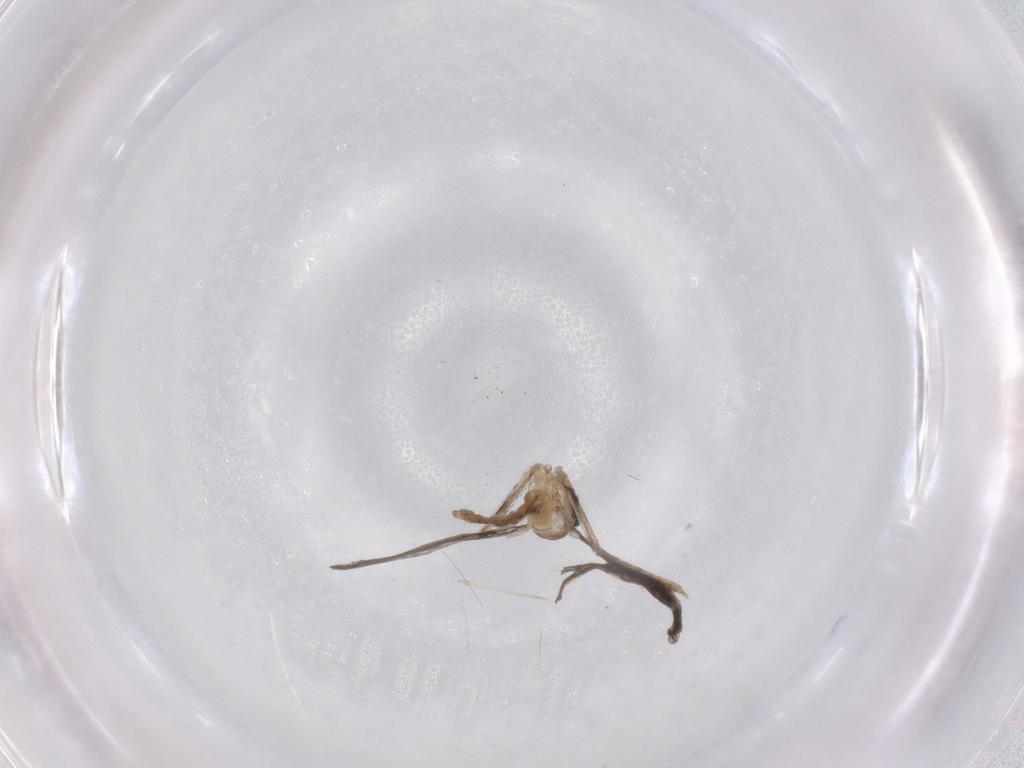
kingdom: Animalia
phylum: Arthropoda
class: Insecta
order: Diptera
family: Cecidomyiidae
